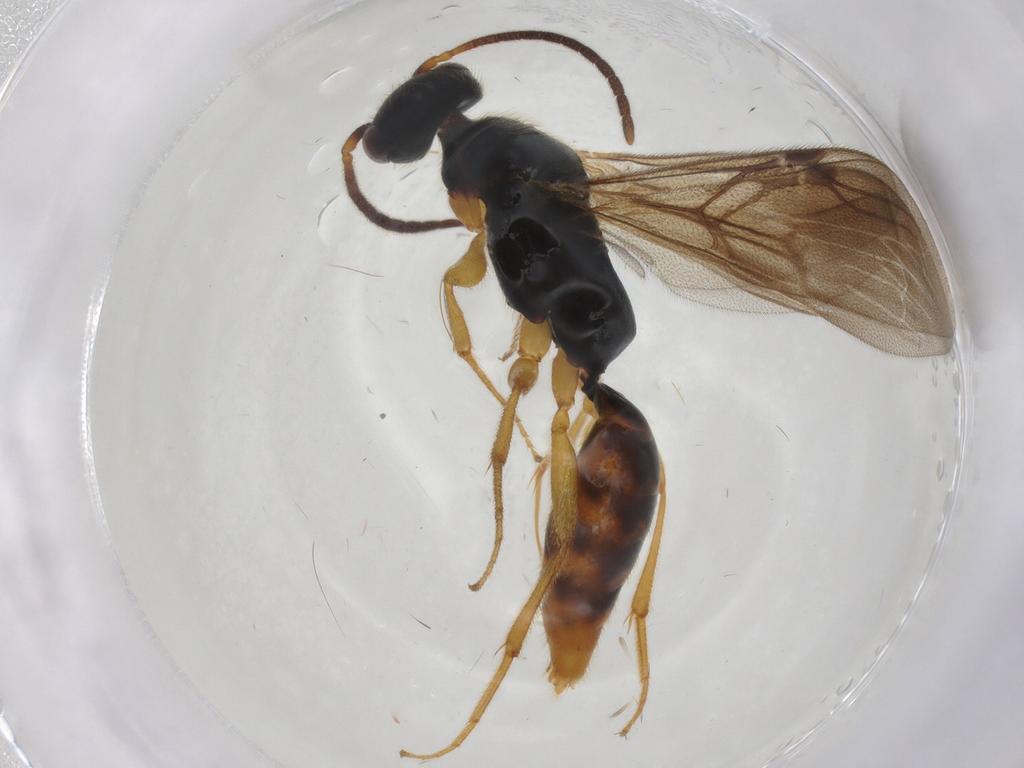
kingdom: Animalia
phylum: Arthropoda
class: Insecta
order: Hymenoptera
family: Bethylidae
